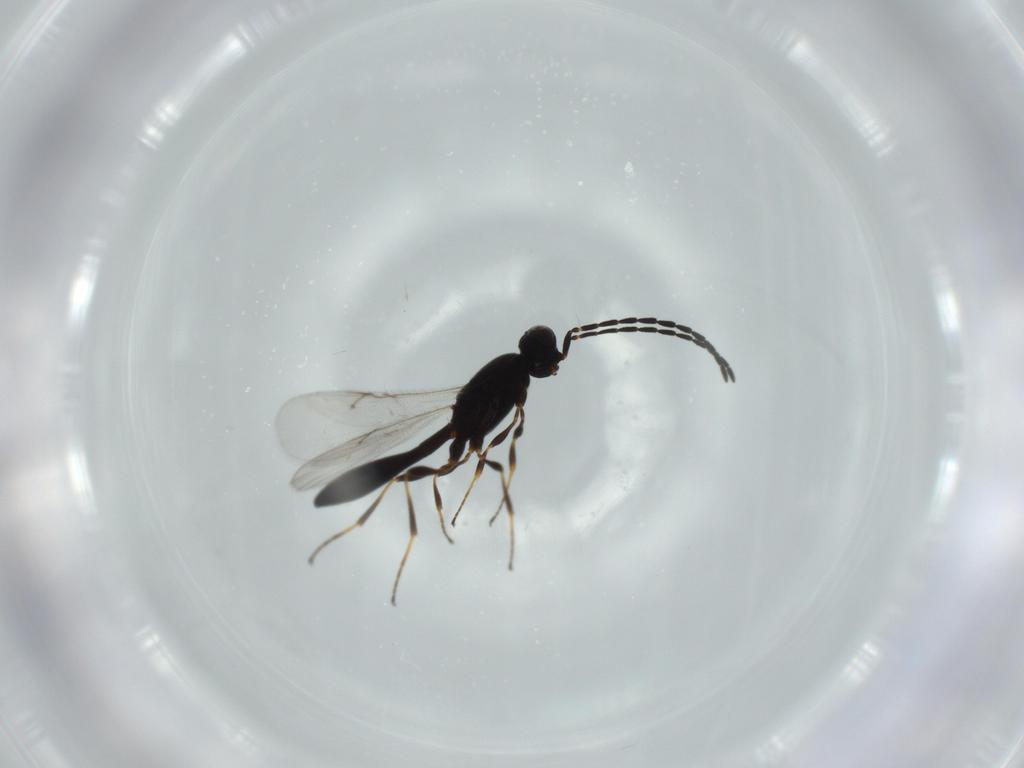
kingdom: Animalia
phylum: Arthropoda
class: Insecta
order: Hymenoptera
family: Scelionidae
